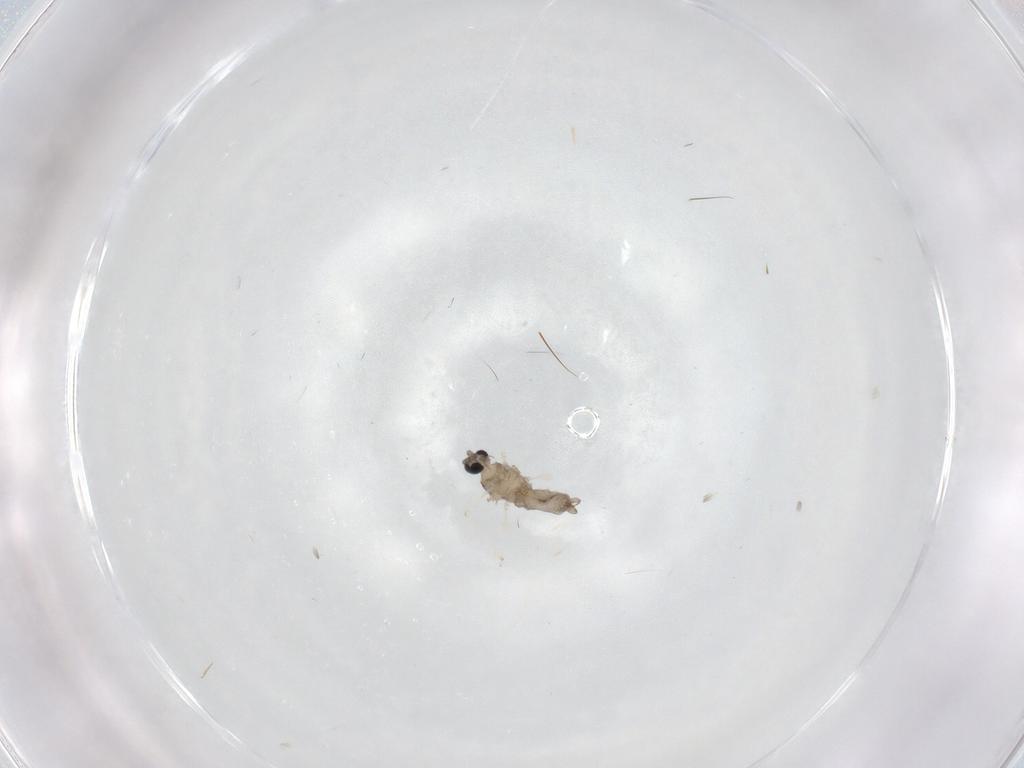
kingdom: Animalia
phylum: Arthropoda
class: Insecta
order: Diptera
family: Cecidomyiidae
